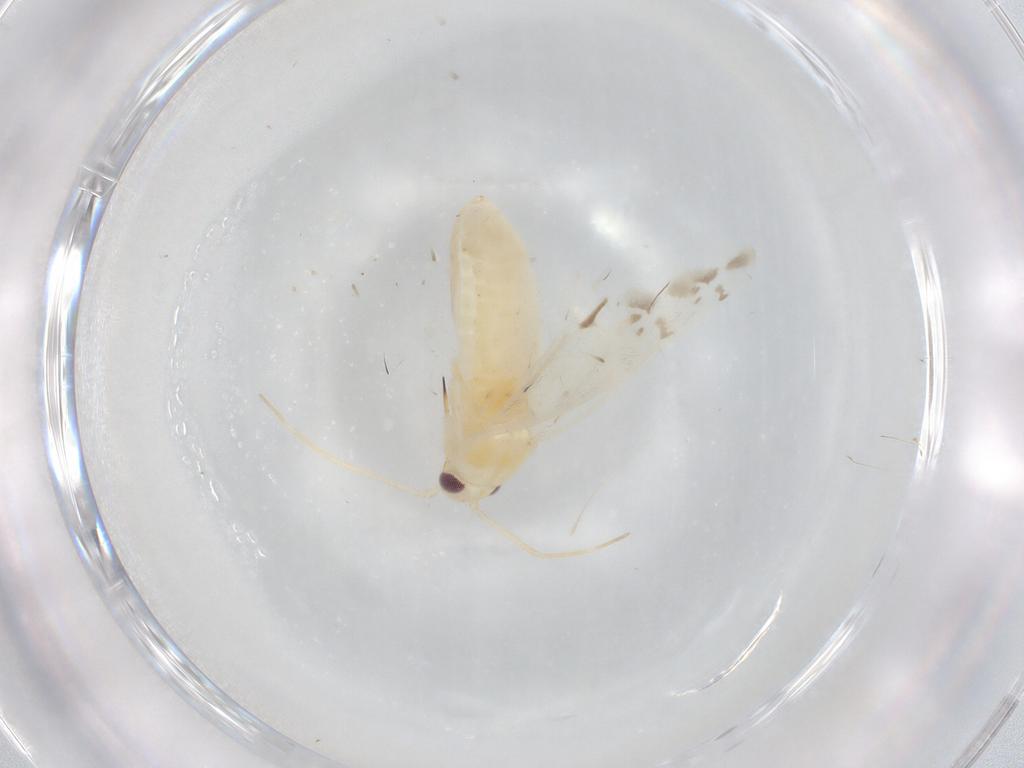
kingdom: Animalia
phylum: Arthropoda
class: Insecta
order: Hemiptera
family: Miridae
